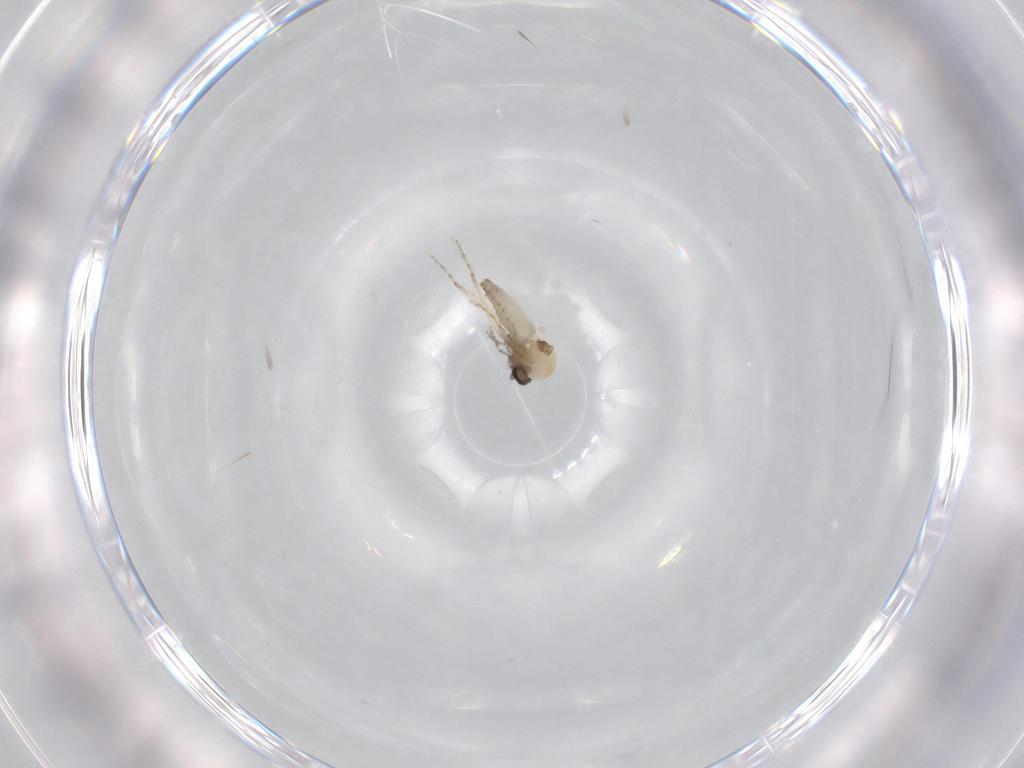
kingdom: Animalia
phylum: Arthropoda
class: Insecta
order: Diptera
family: Ceratopogonidae
